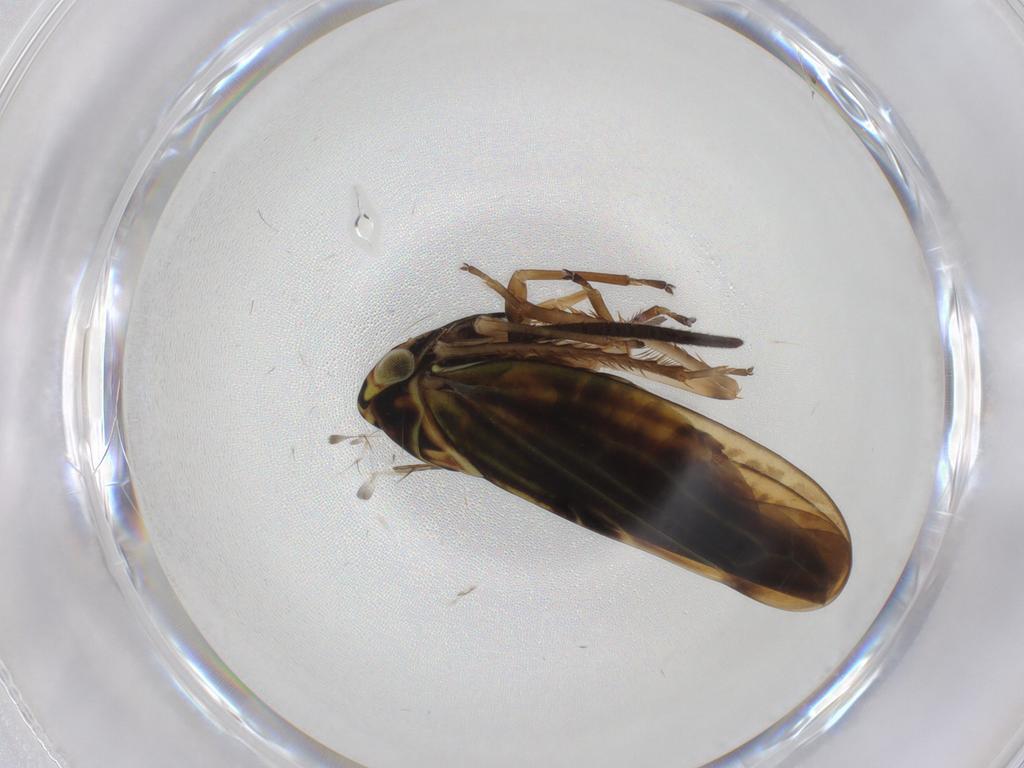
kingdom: Animalia
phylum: Arthropoda
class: Insecta
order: Hemiptera
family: Cicadellidae
